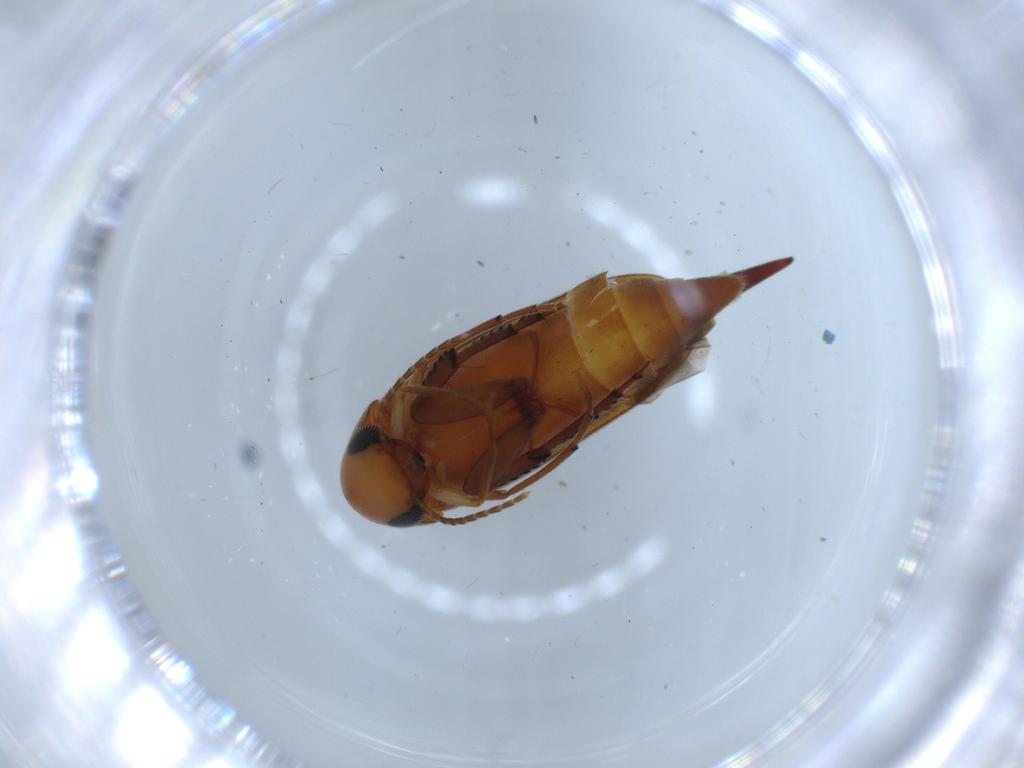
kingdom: Animalia
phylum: Arthropoda
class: Insecta
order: Coleoptera
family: Mordellidae
